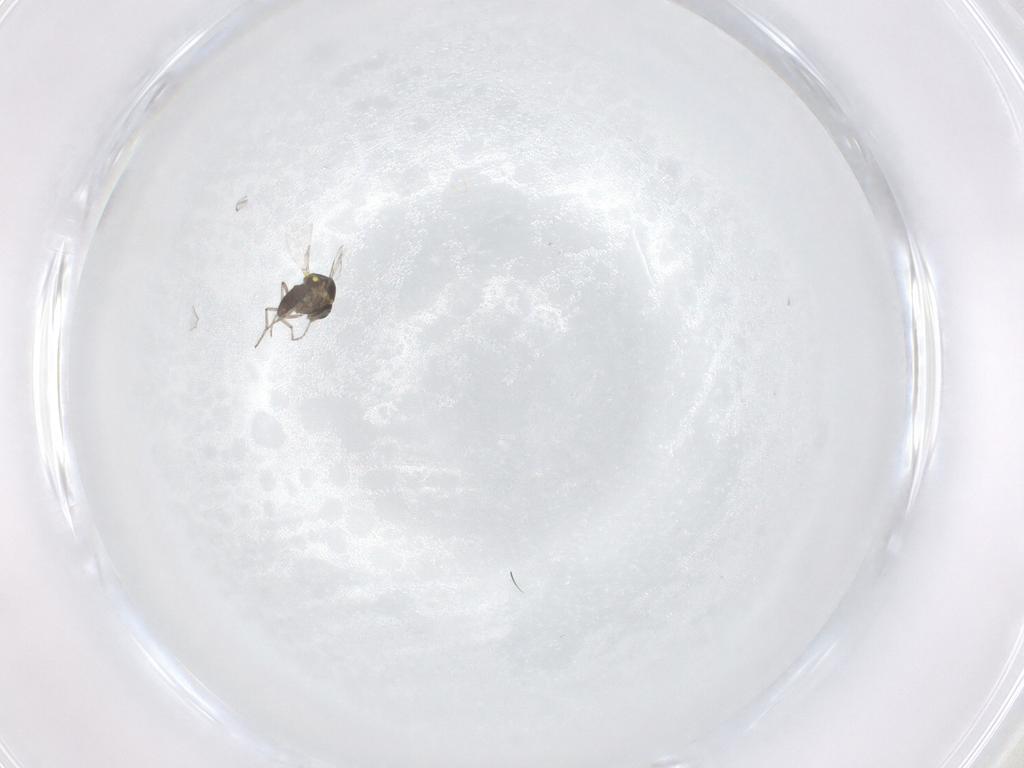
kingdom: Animalia
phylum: Arthropoda
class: Insecta
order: Diptera
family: Ceratopogonidae
